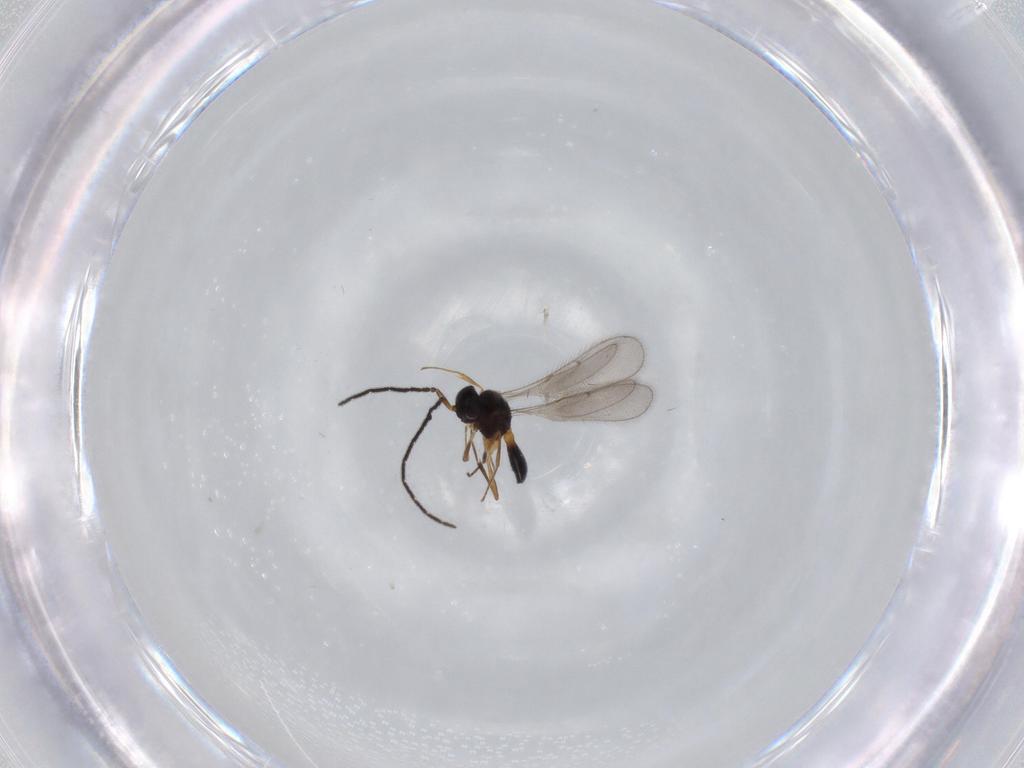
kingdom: Animalia
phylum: Arthropoda
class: Insecta
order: Hymenoptera
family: Scelionidae
